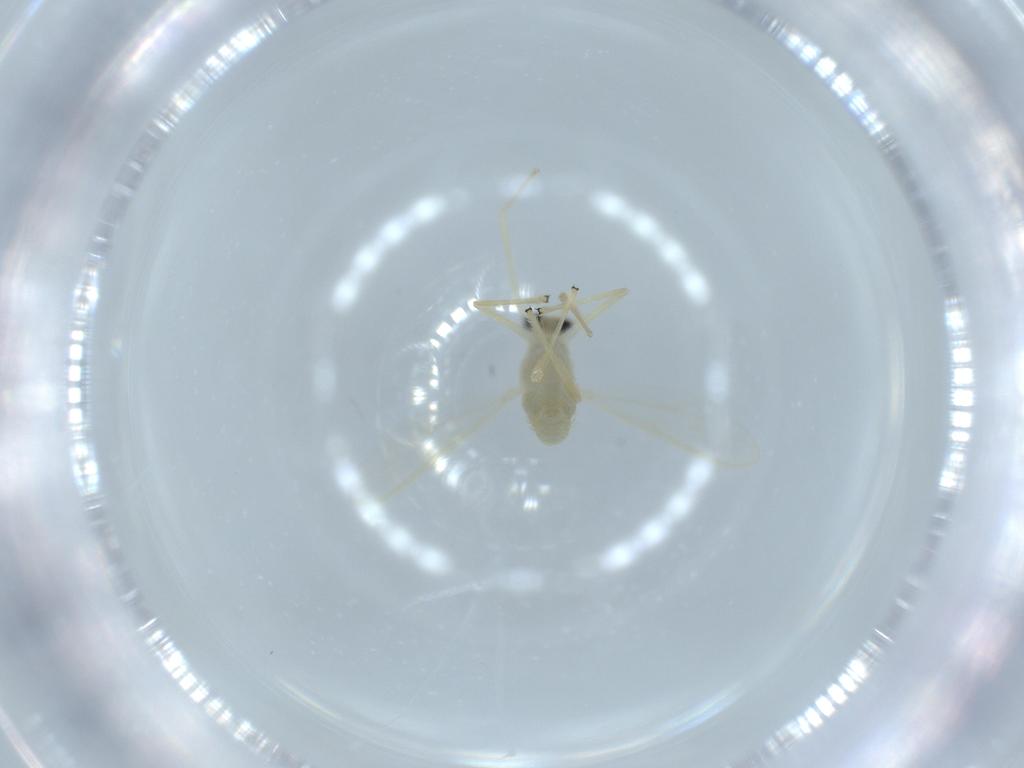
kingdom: Animalia
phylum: Arthropoda
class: Insecta
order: Diptera
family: Chironomidae
